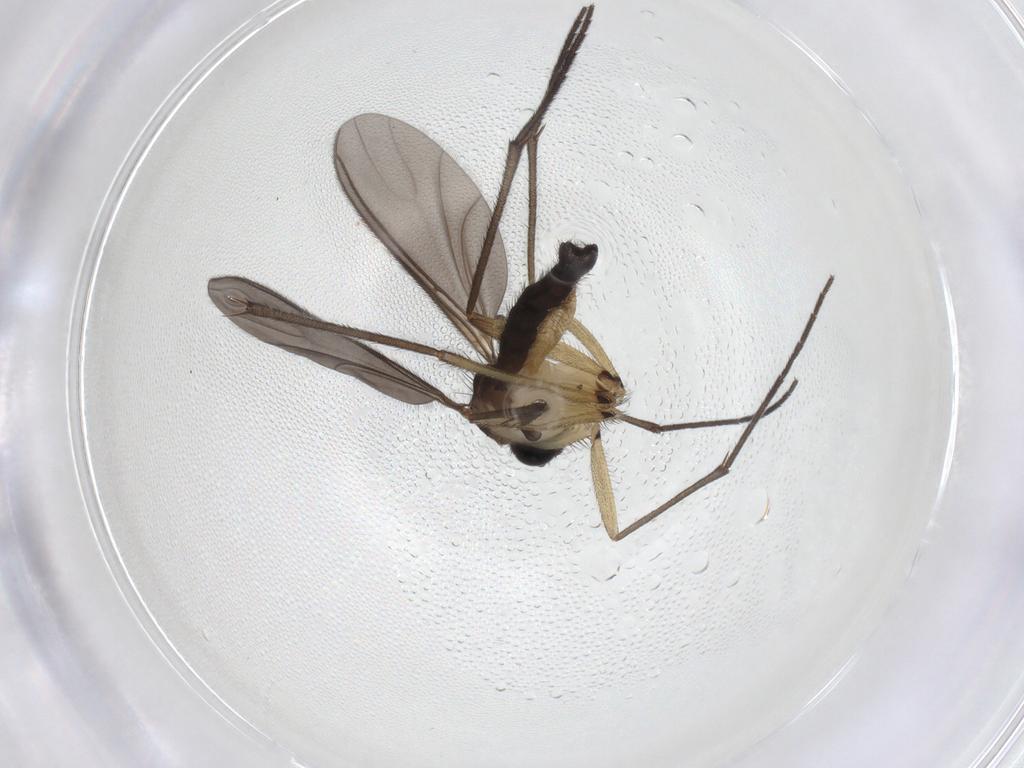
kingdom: Animalia
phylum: Arthropoda
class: Insecta
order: Diptera
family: Sciaridae
